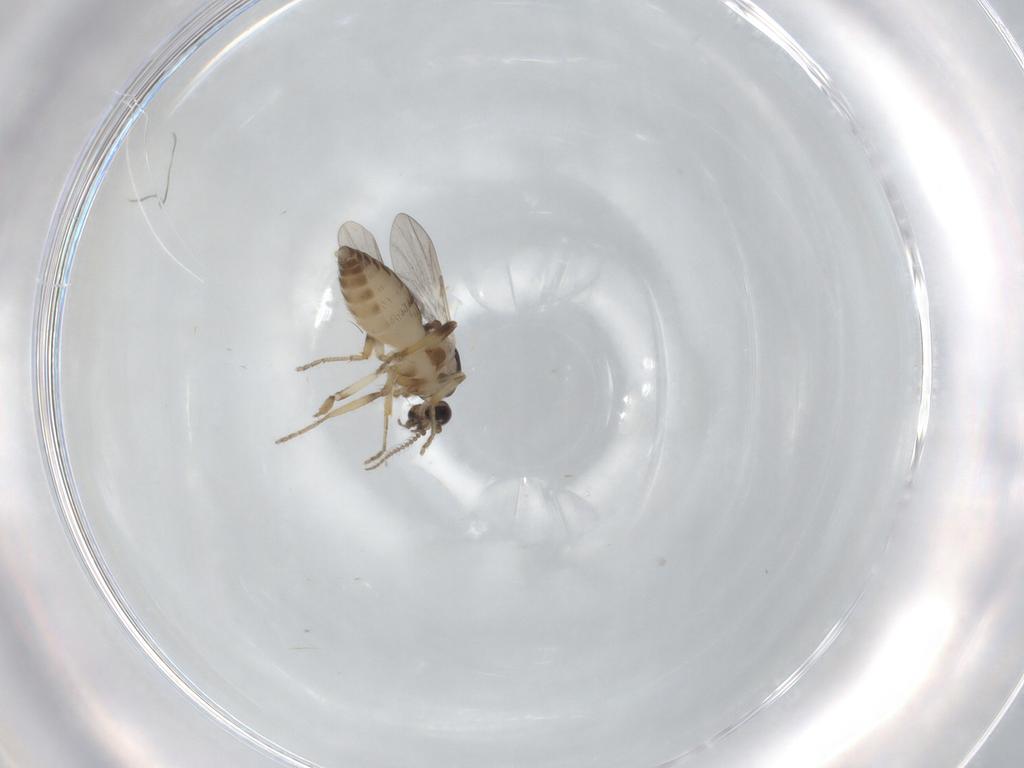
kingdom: Animalia
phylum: Arthropoda
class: Insecta
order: Diptera
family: Ceratopogonidae
